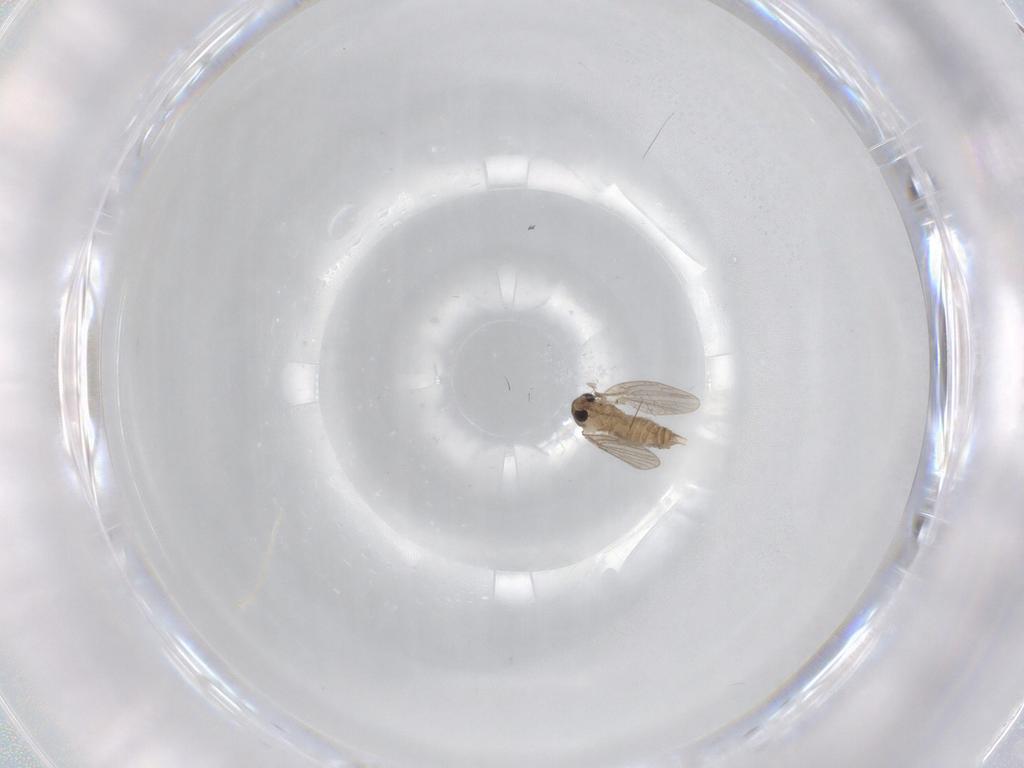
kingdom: Animalia
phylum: Arthropoda
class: Insecta
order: Diptera
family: Psychodidae
